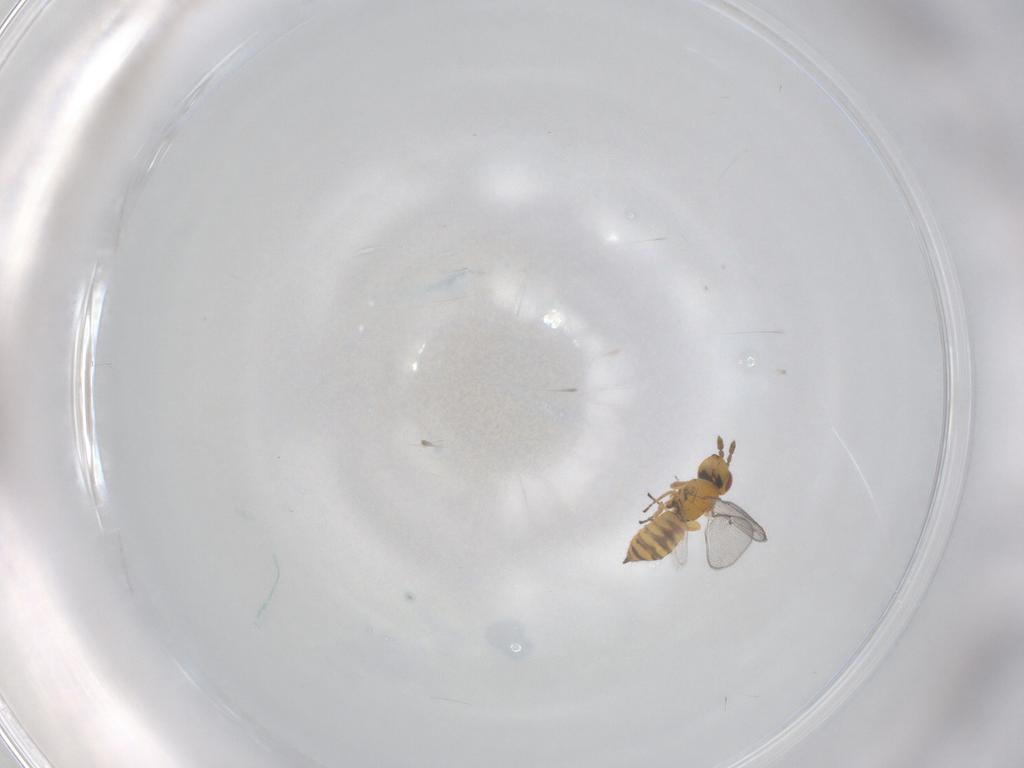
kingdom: Animalia
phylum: Arthropoda
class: Insecta
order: Hymenoptera
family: Eulophidae
